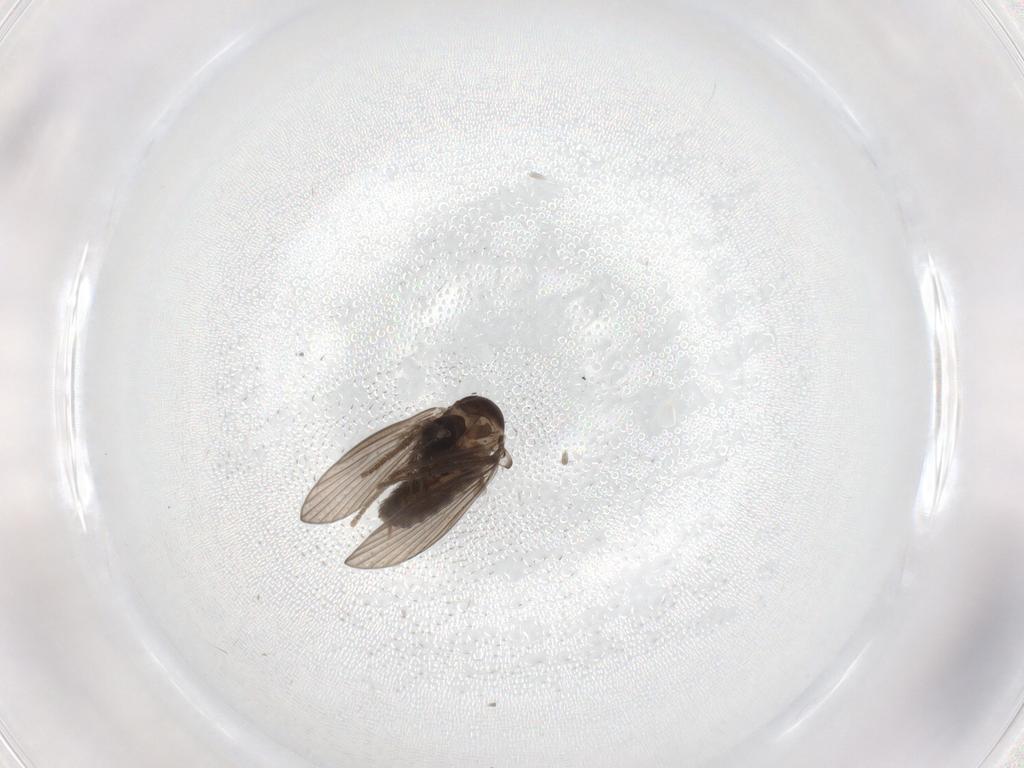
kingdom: Animalia
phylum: Arthropoda
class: Insecta
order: Diptera
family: Psychodidae
